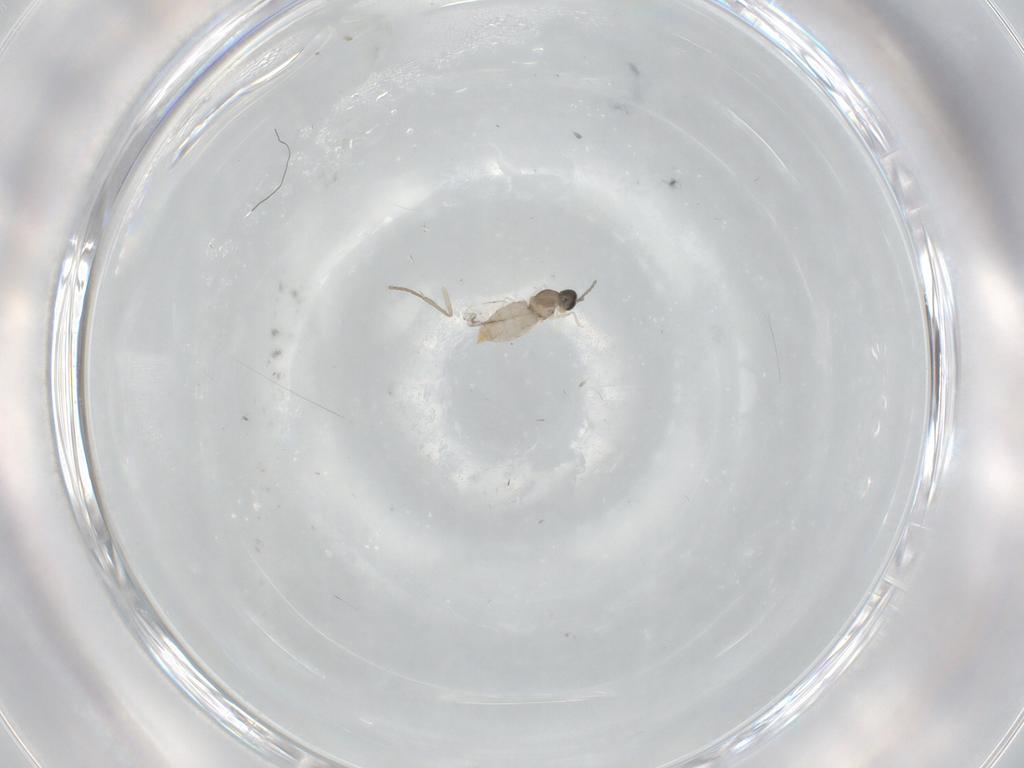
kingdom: Animalia
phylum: Arthropoda
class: Insecta
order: Diptera
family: Cecidomyiidae
